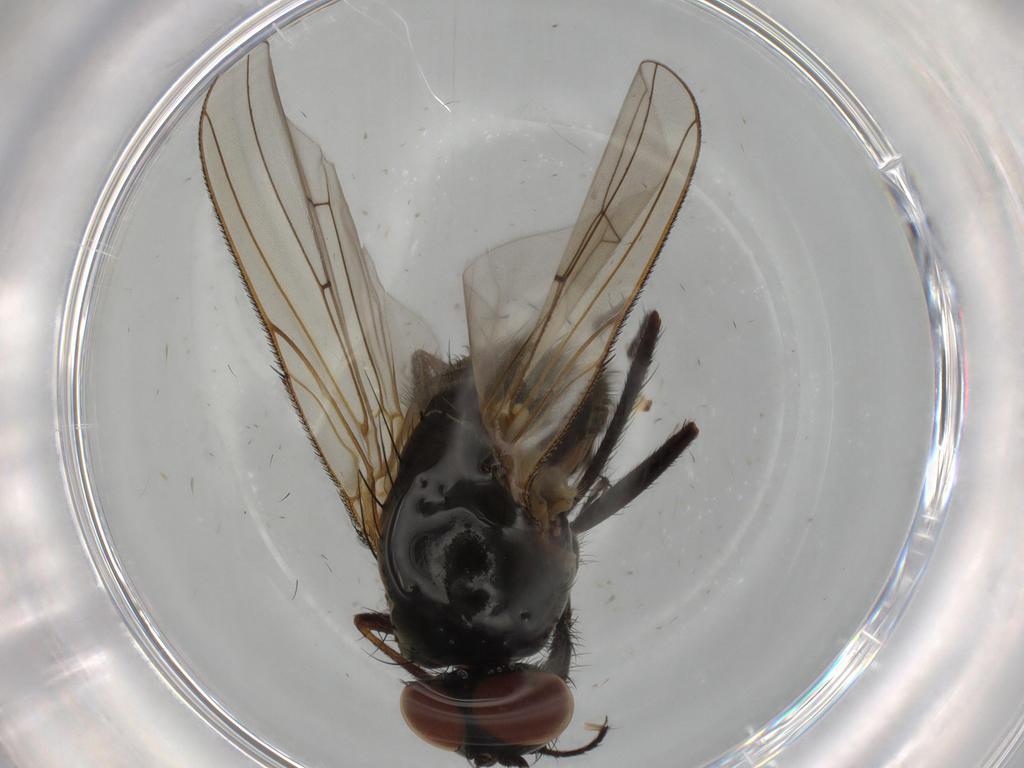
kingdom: Animalia
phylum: Arthropoda
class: Insecta
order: Diptera
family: Anthomyiidae
